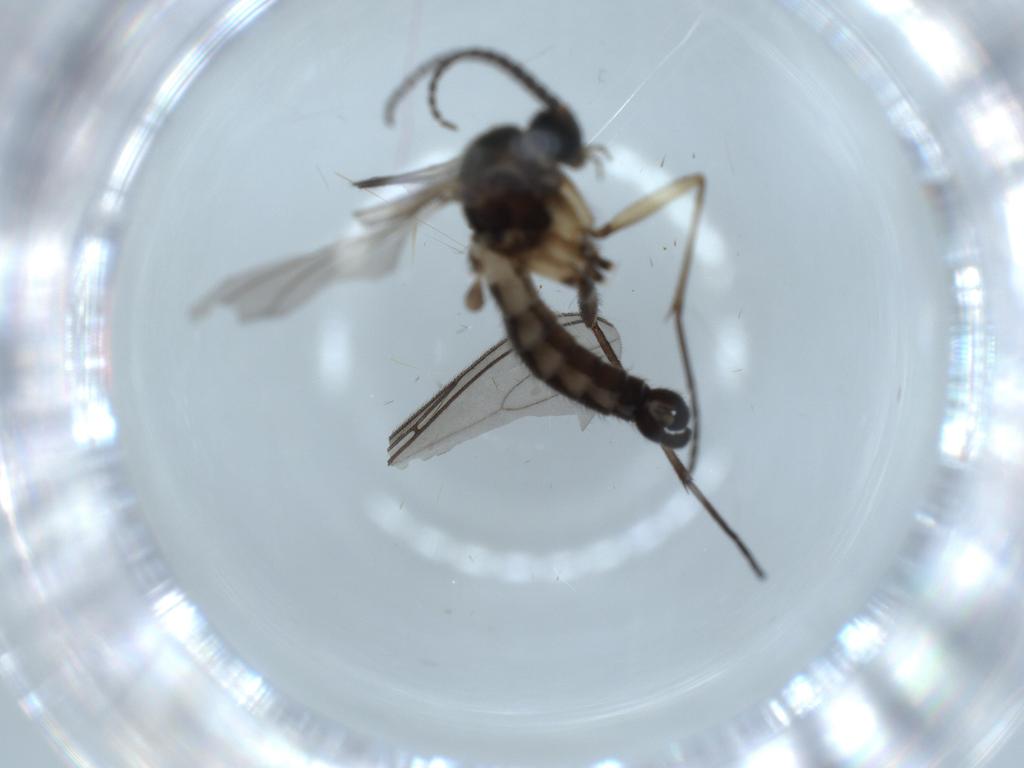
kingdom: Animalia
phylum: Arthropoda
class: Insecta
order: Diptera
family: Sciaridae
